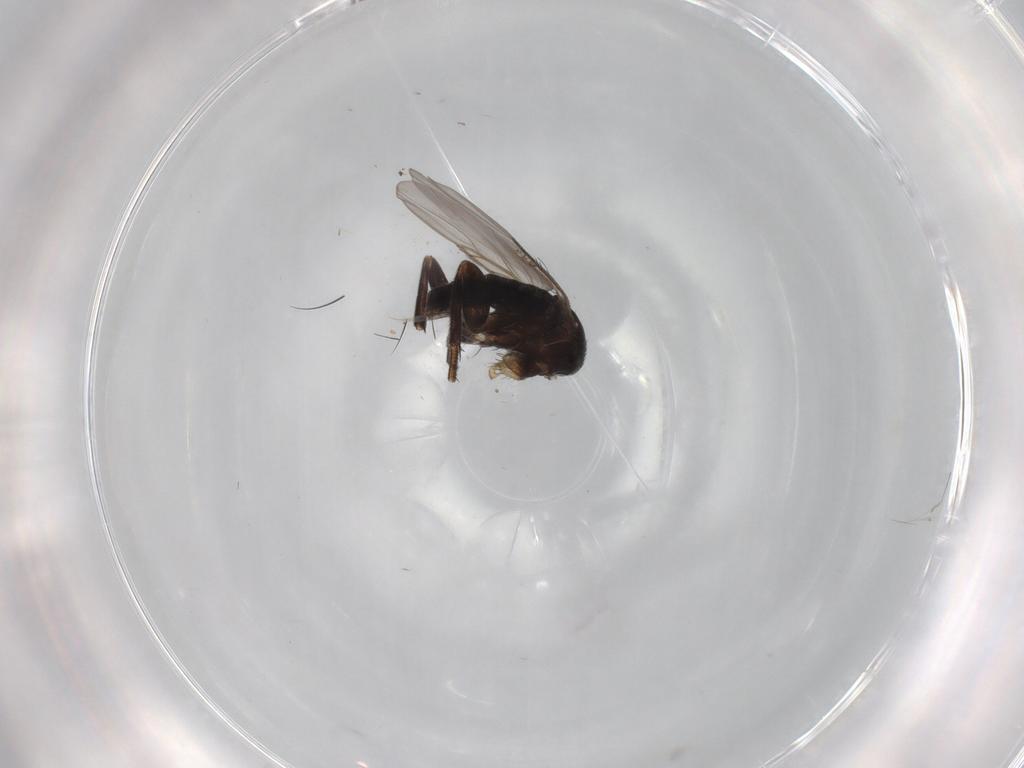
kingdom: Animalia
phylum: Arthropoda
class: Insecta
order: Diptera
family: Phoridae
